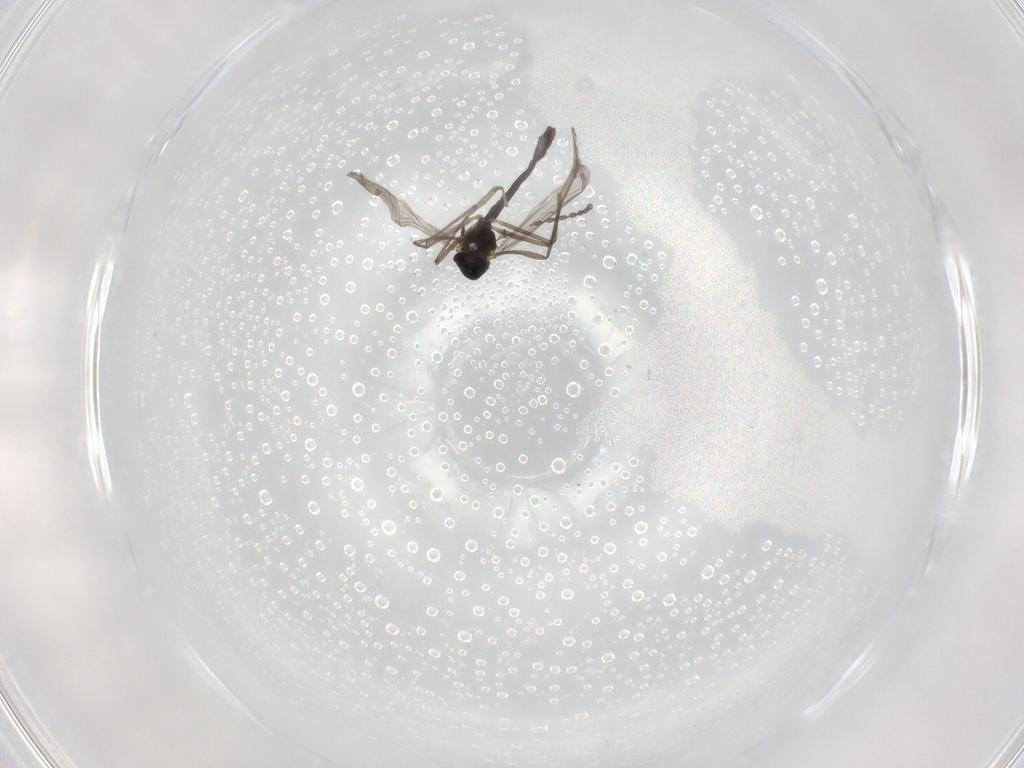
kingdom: Animalia
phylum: Arthropoda
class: Insecta
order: Diptera
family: Chironomidae
